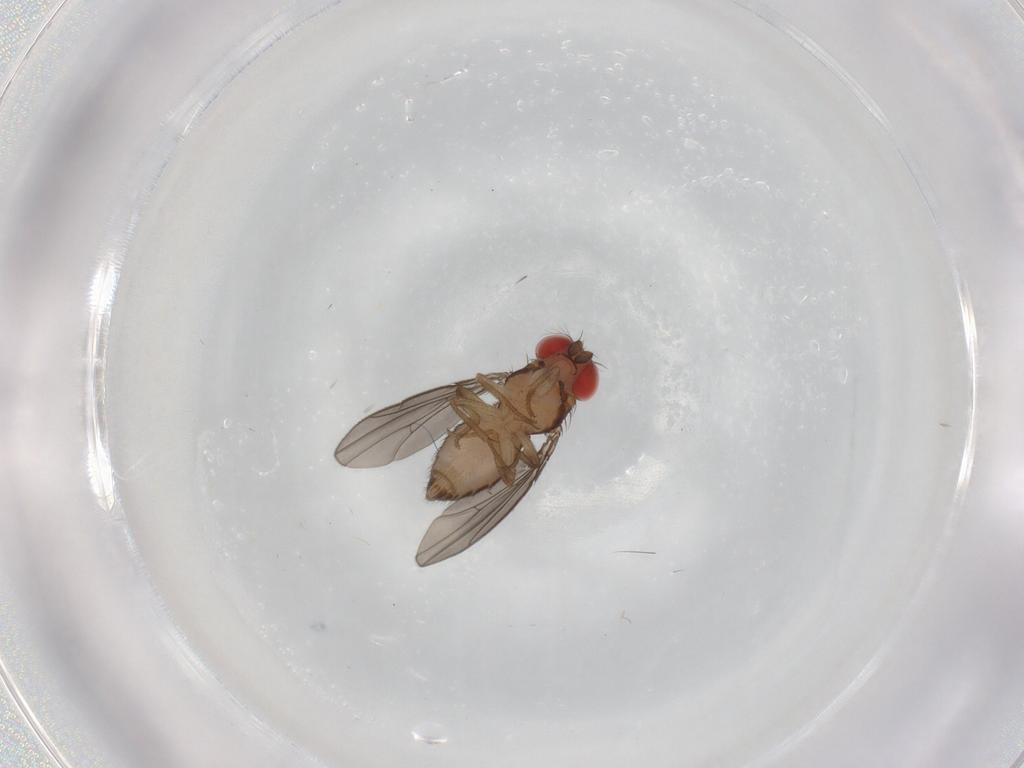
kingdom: Animalia
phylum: Arthropoda
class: Insecta
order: Diptera
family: Drosophilidae
